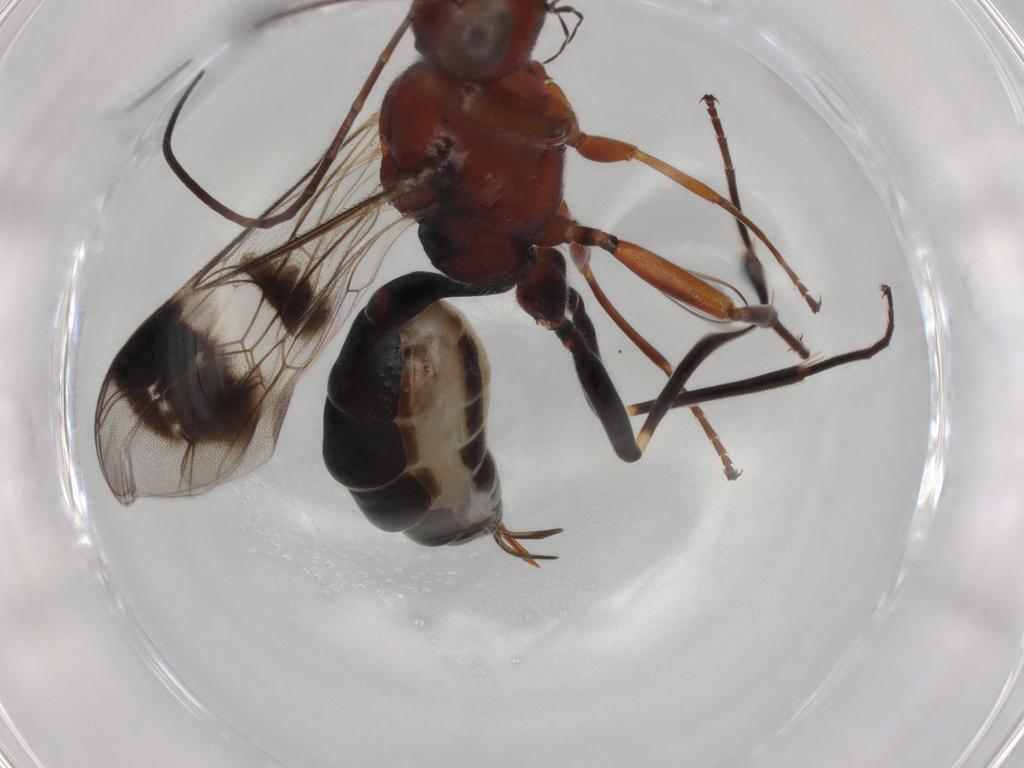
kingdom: Animalia
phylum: Arthropoda
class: Insecta
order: Hymenoptera
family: Ichneumonidae
